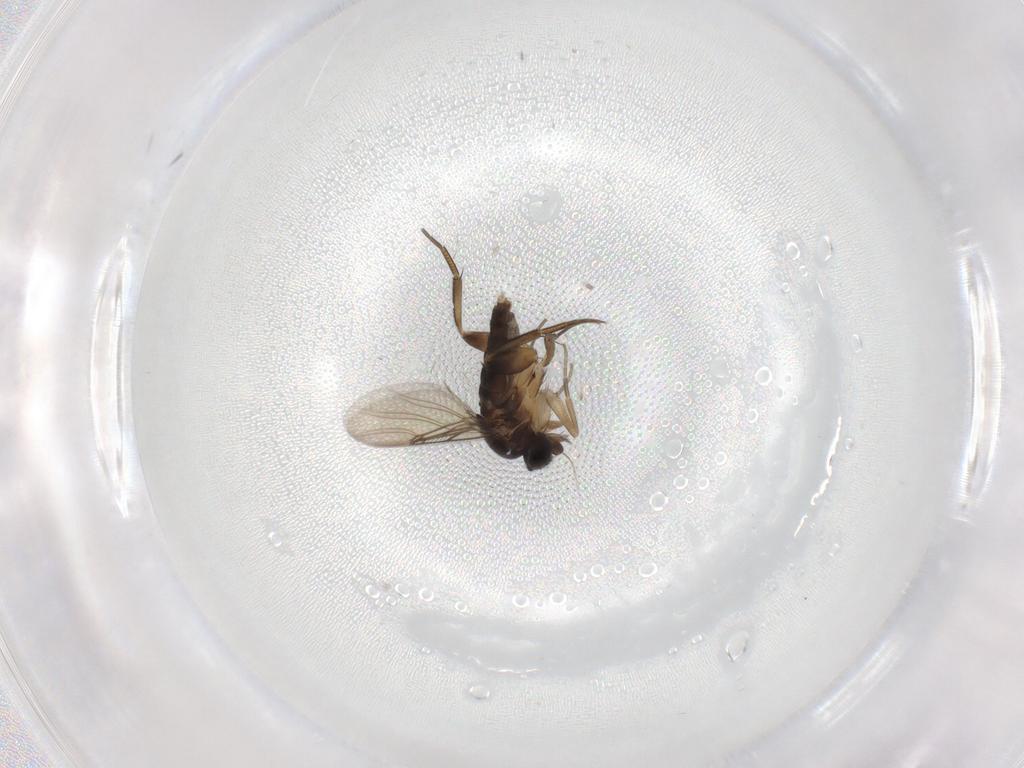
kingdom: Animalia
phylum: Arthropoda
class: Insecta
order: Diptera
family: Phoridae
